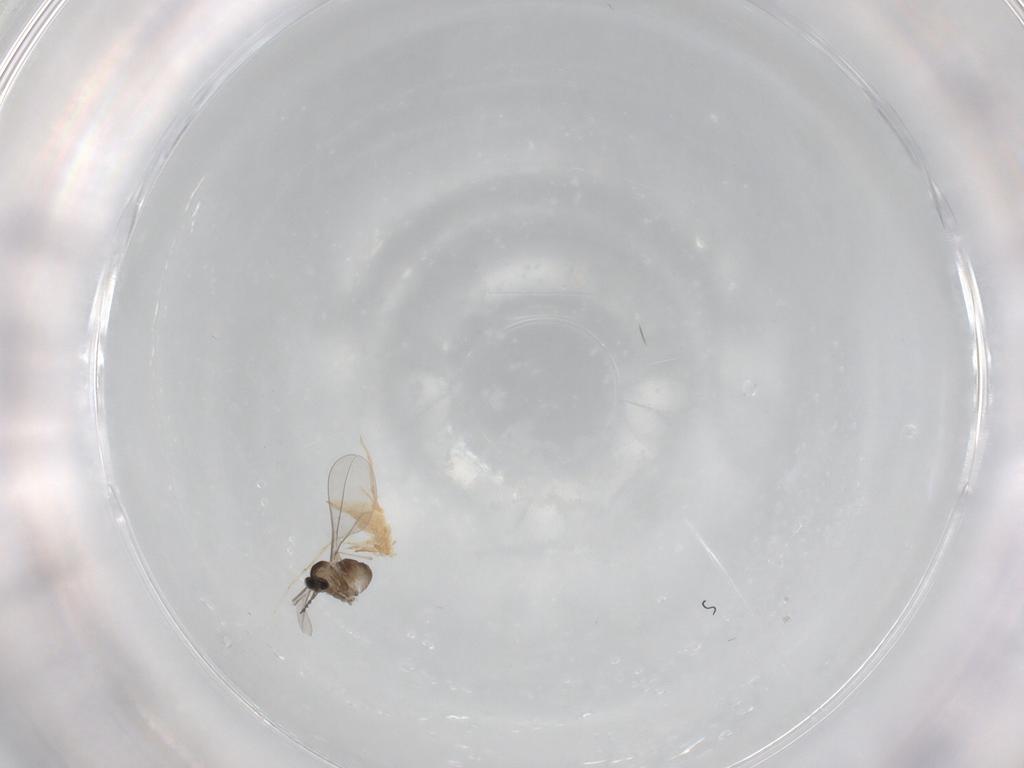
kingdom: Animalia
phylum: Arthropoda
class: Insecta
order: Diptera
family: Cecidomyiidae
